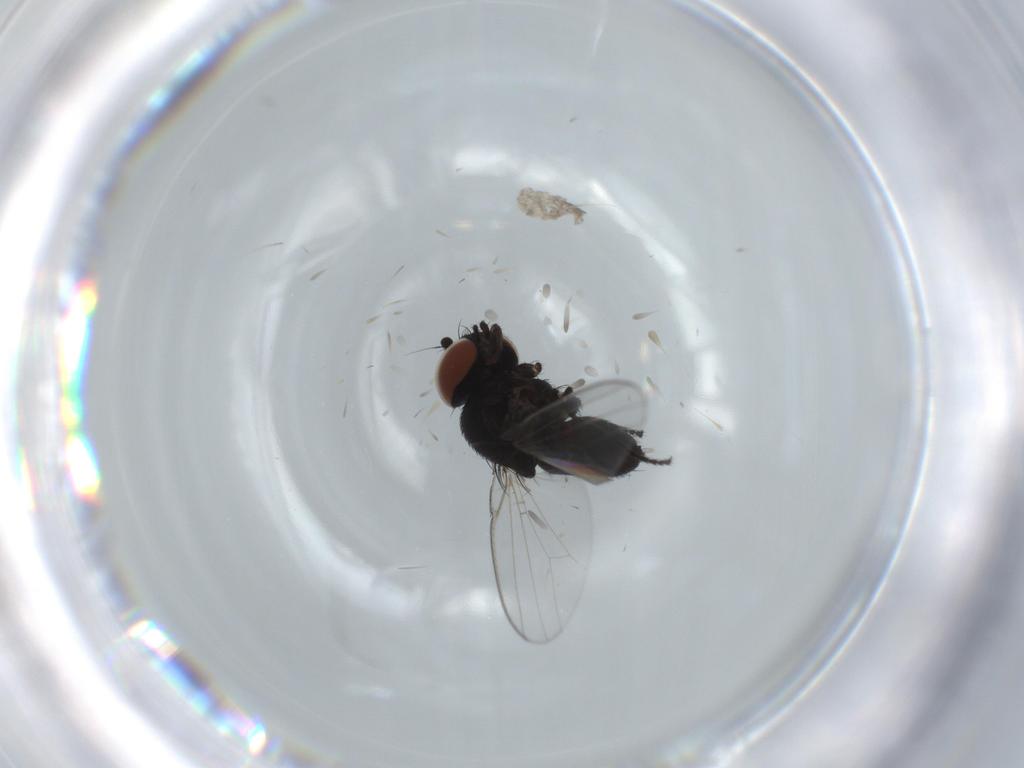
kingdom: Animalia
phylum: Arthropoda
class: Insecta
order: Diptera
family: Milichiidae
